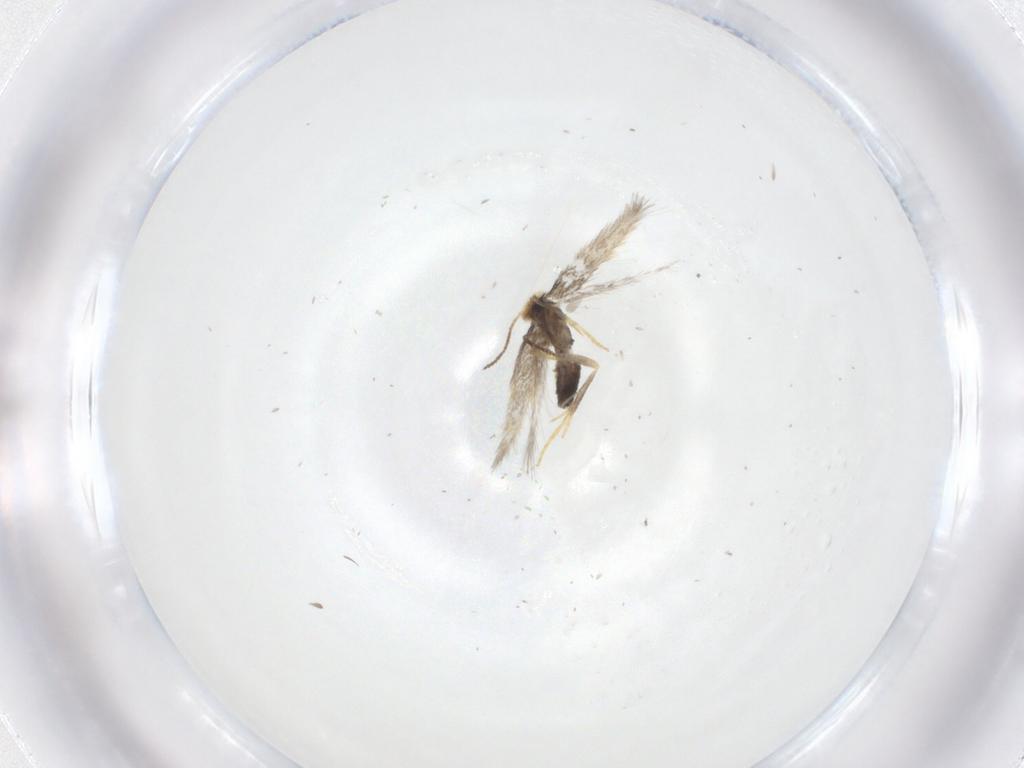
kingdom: Animalia
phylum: Arthropoda
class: Insecta
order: Lepidoptera
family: Nepticulidae
